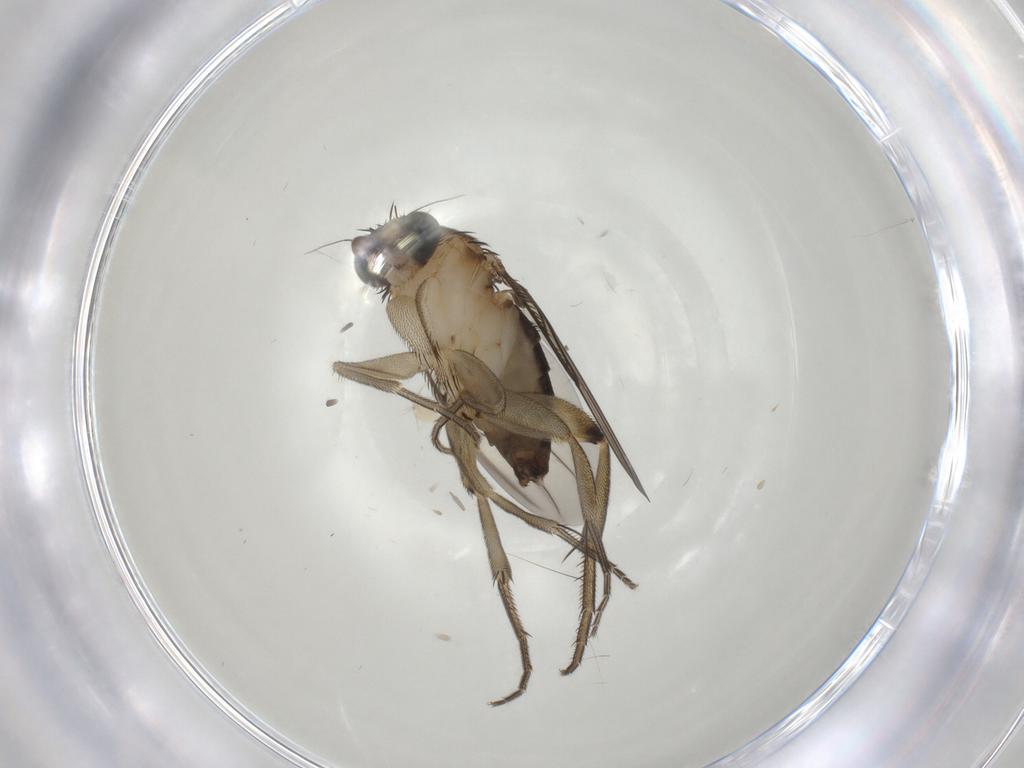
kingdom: Animalia
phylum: Arthropoda
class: Insecta
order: Diptera
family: Phoridae
